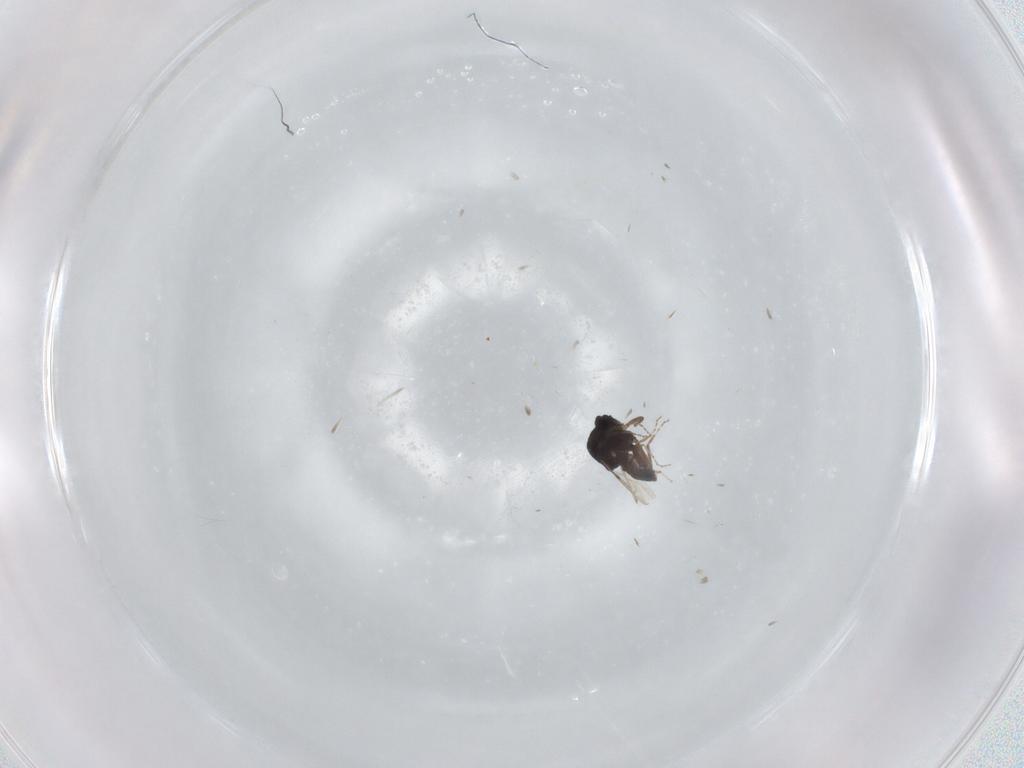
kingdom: Animalia
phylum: Arthropoda
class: Insecta
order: Diptera
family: Ceratopogonidae
